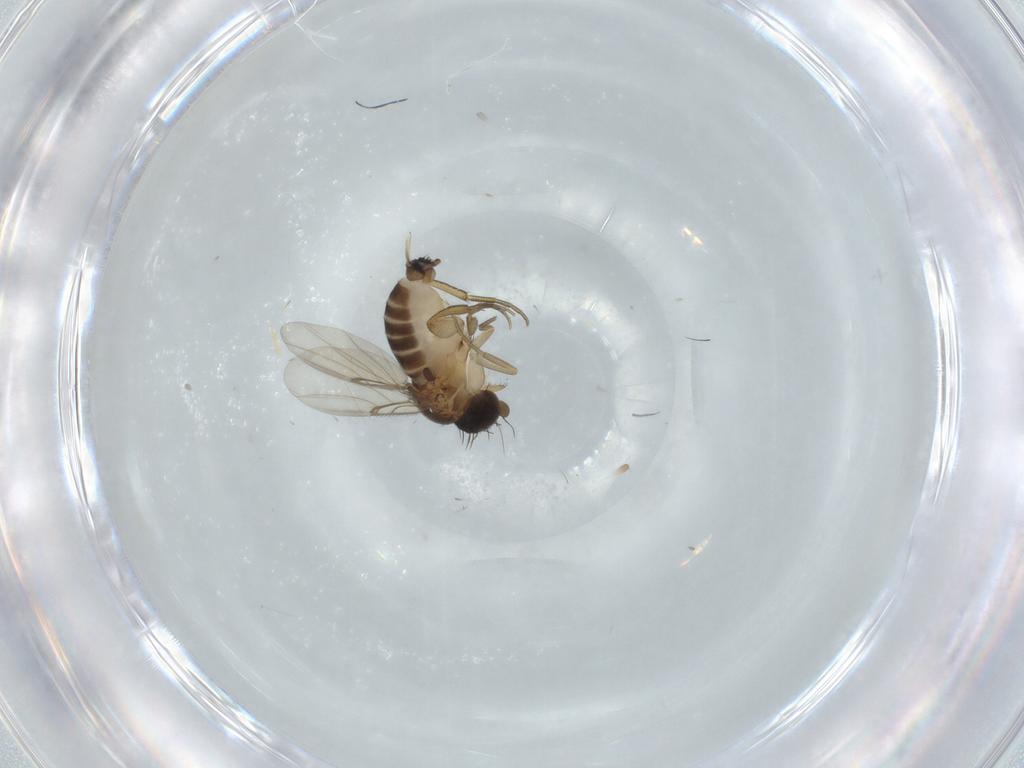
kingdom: Animalia
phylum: Arthropoda
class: Insecta
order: Diptera
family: Phoridae
